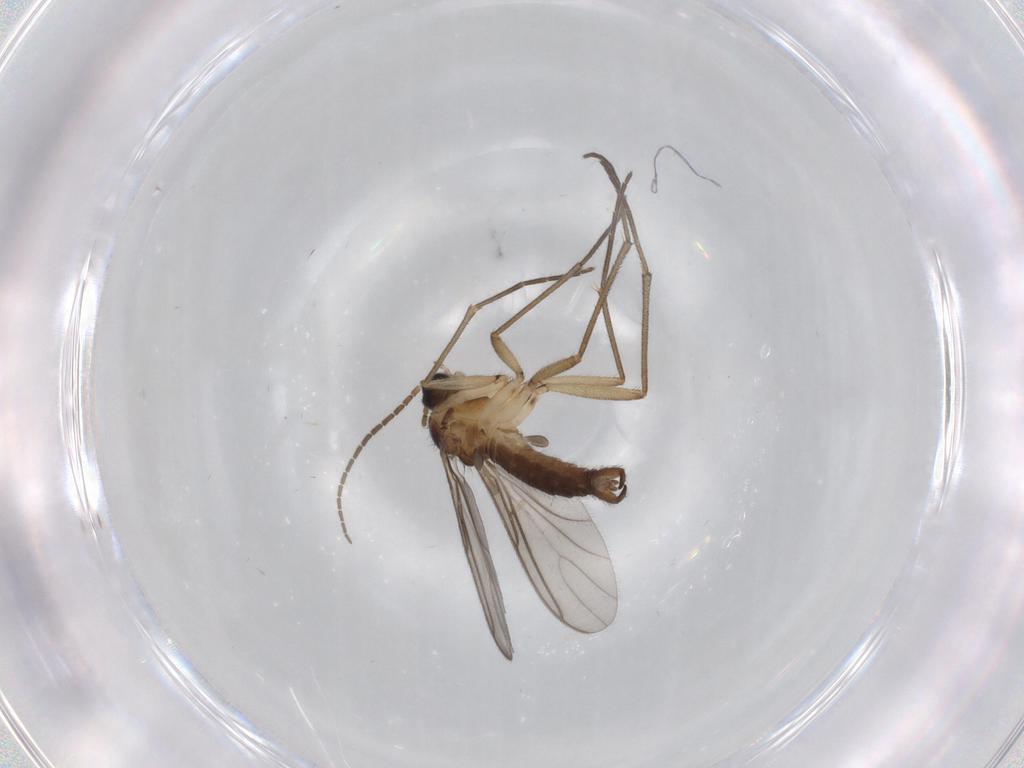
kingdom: Animalia
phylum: Arthropoda
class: Insecta
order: Diptera
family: Sciaridae
